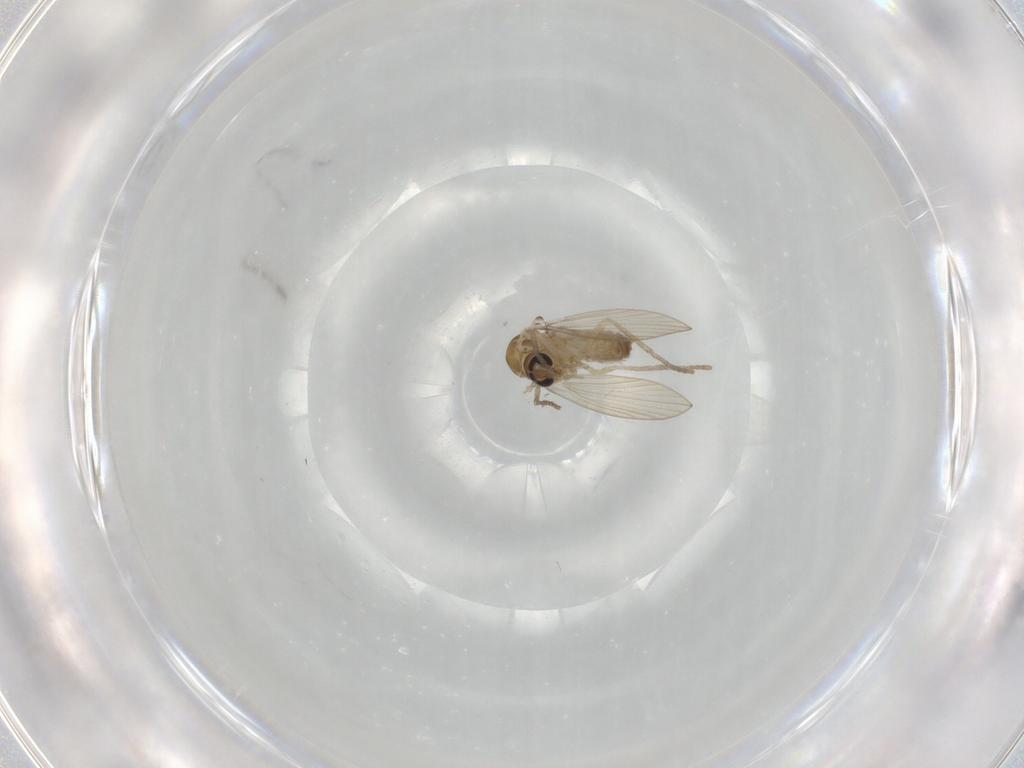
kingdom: Animalia
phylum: Arthropoda
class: Insecta
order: Diptera
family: Psychodidae
